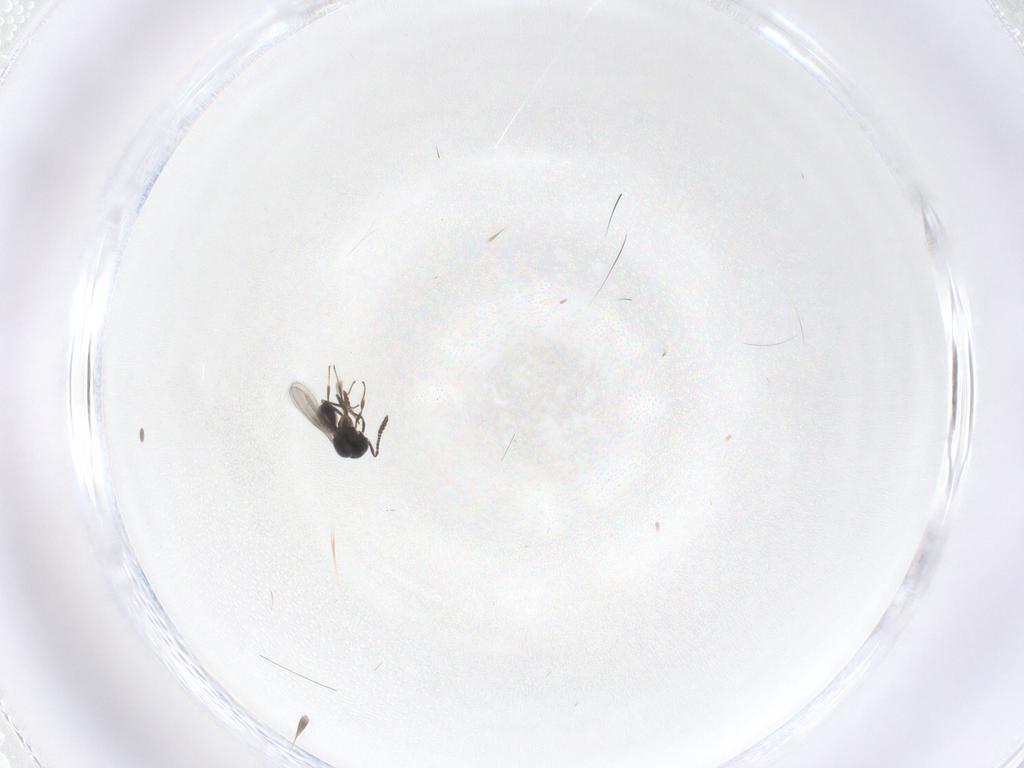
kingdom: Animalia
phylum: Arthropoda
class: Insecta
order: Hymenoptera
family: Scelionidae
